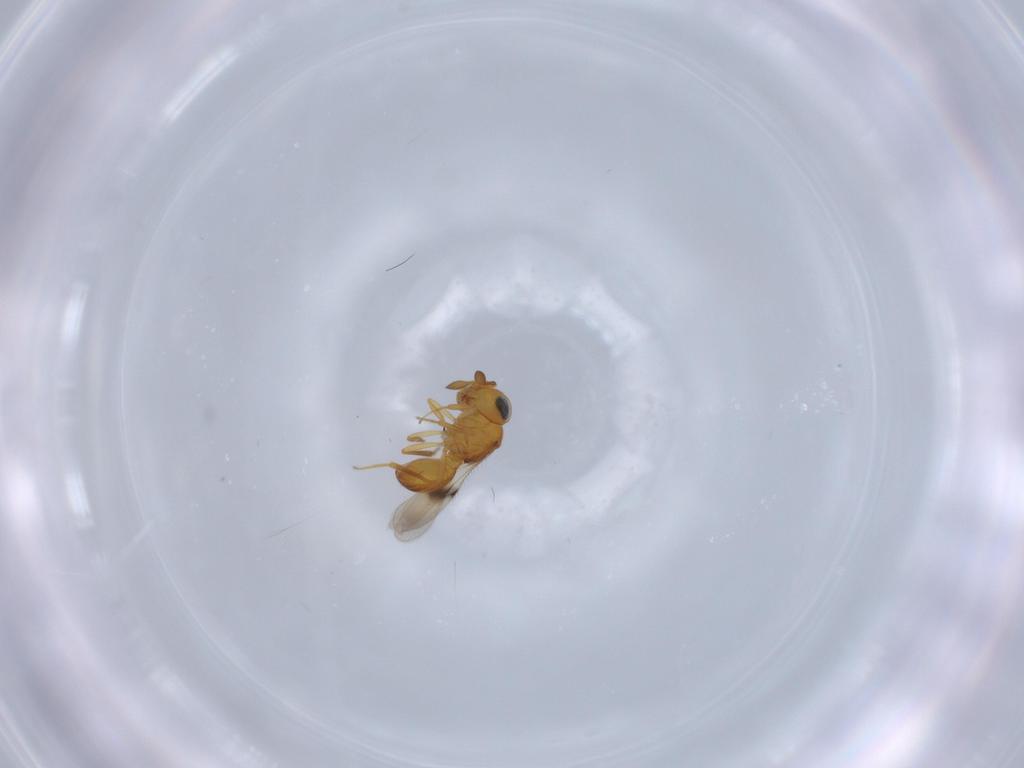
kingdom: Animalia
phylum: Arthropoda
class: Insecta
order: Hymenoptera
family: Scelionidae
